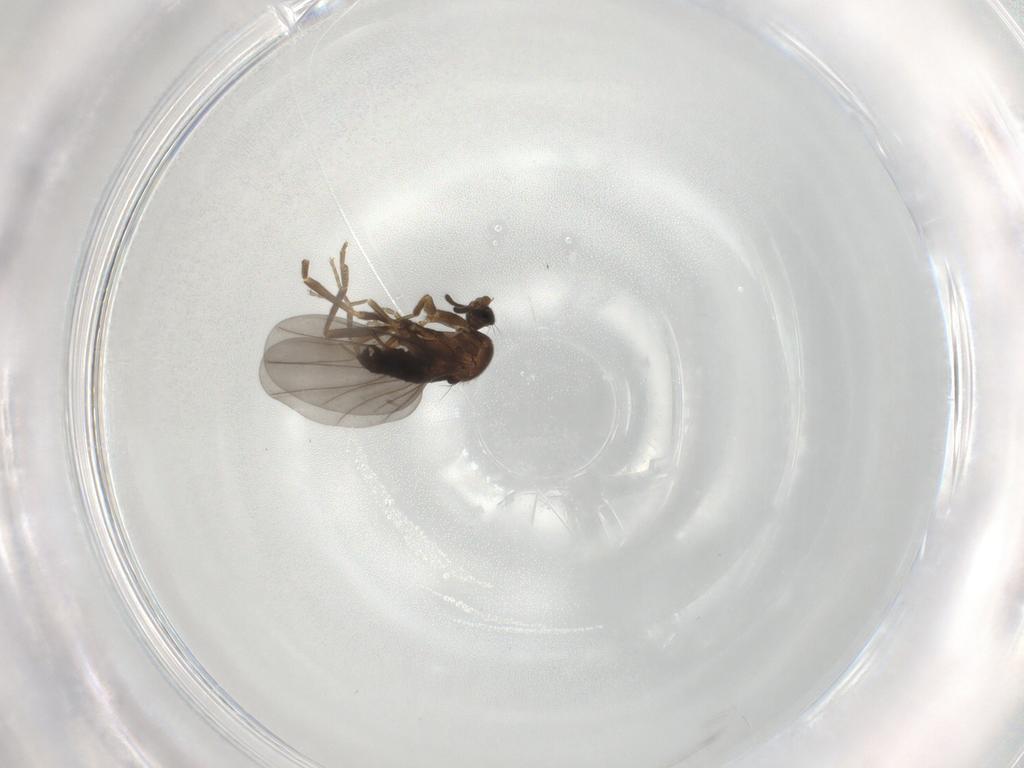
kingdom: Animalia
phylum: Arthropoda
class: Insecta
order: Diptera
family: Phoridae
